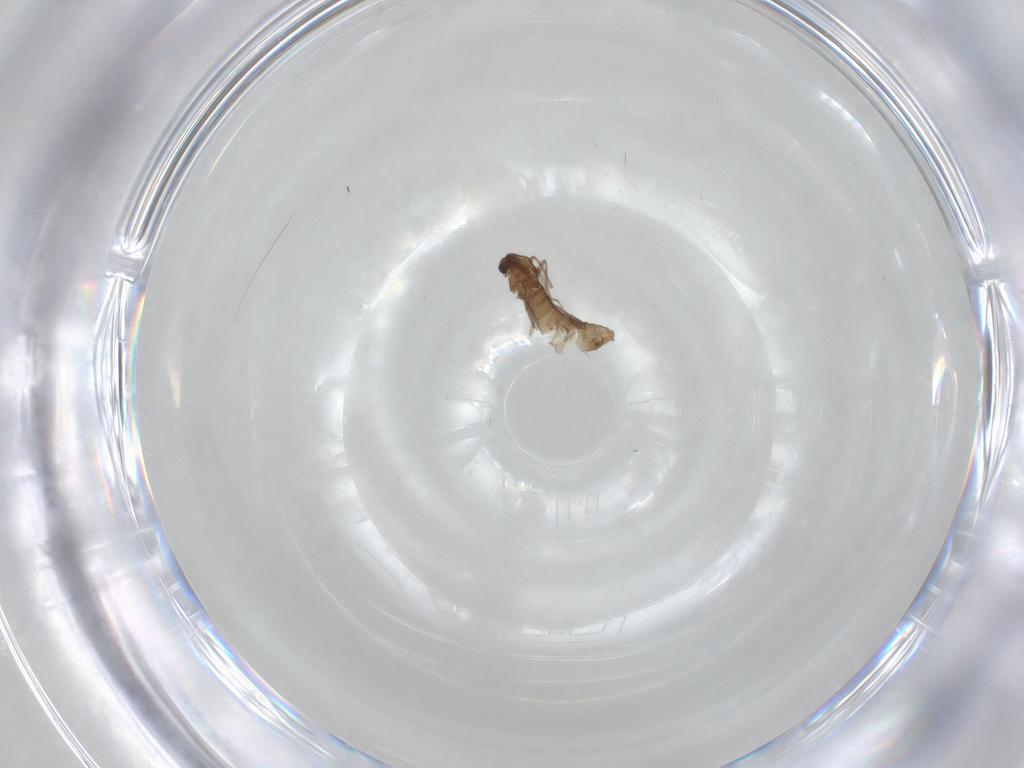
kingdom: Animalia
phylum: Arthropoda
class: Insecta
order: Diptera
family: Chironomidae
